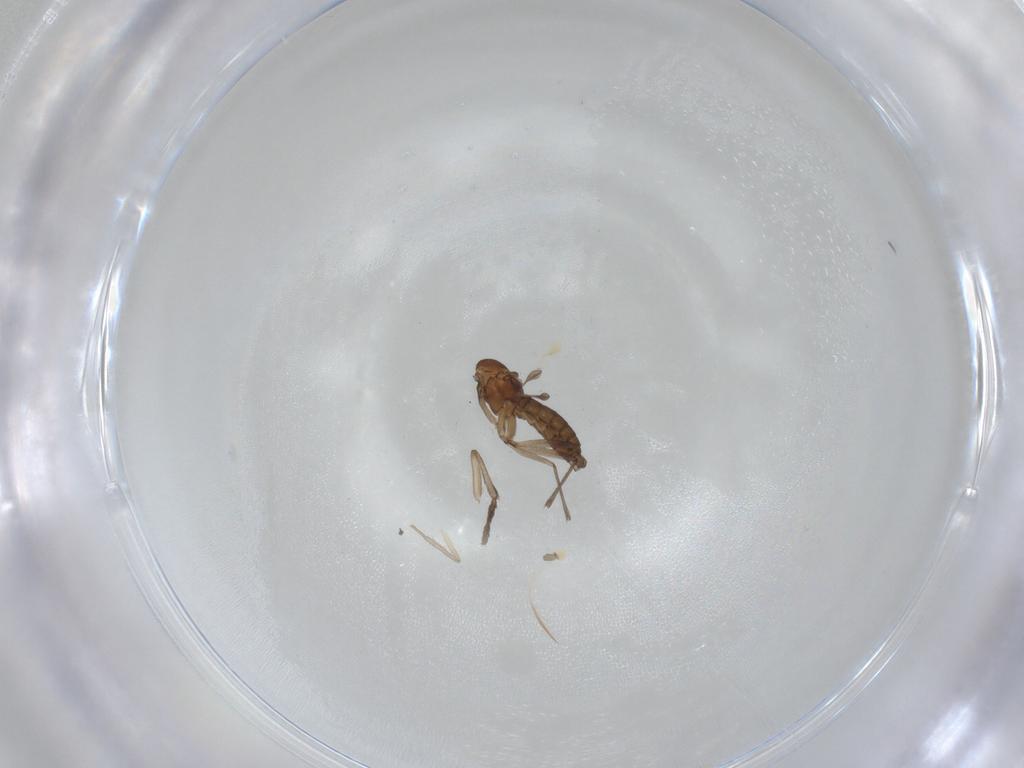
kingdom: Animalia
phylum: Arthropoda
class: Insecta
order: Diptera
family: Sciaridae
